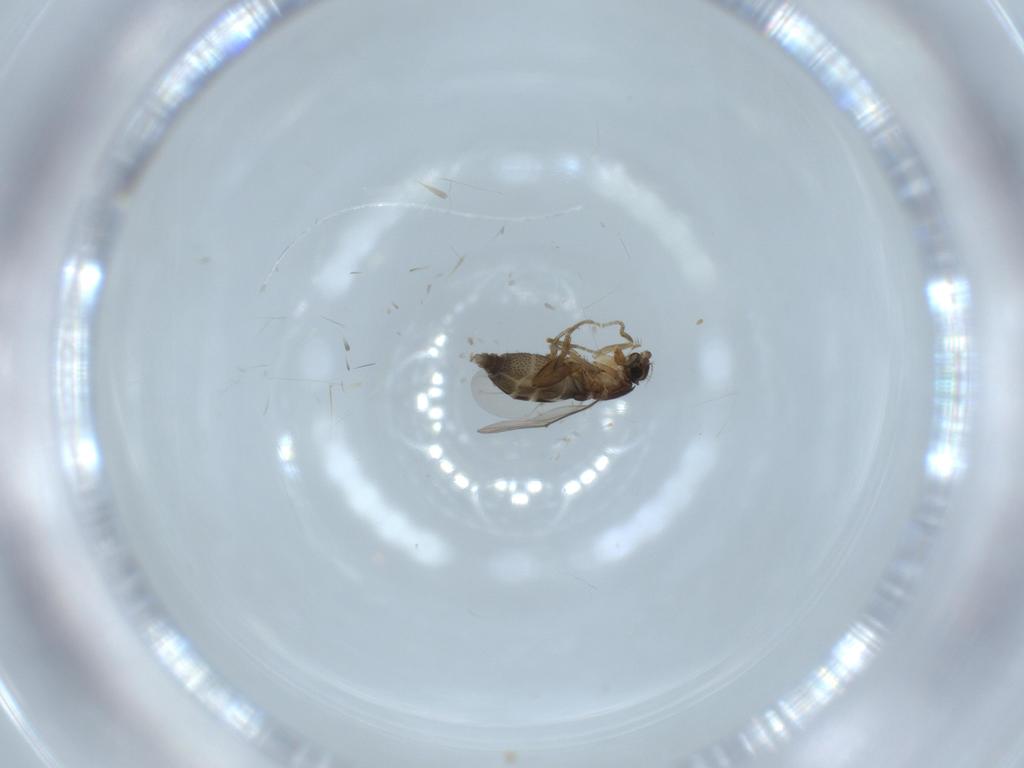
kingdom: Animalia
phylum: Arthropoda
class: Insecta
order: Diptera
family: Phoridae
